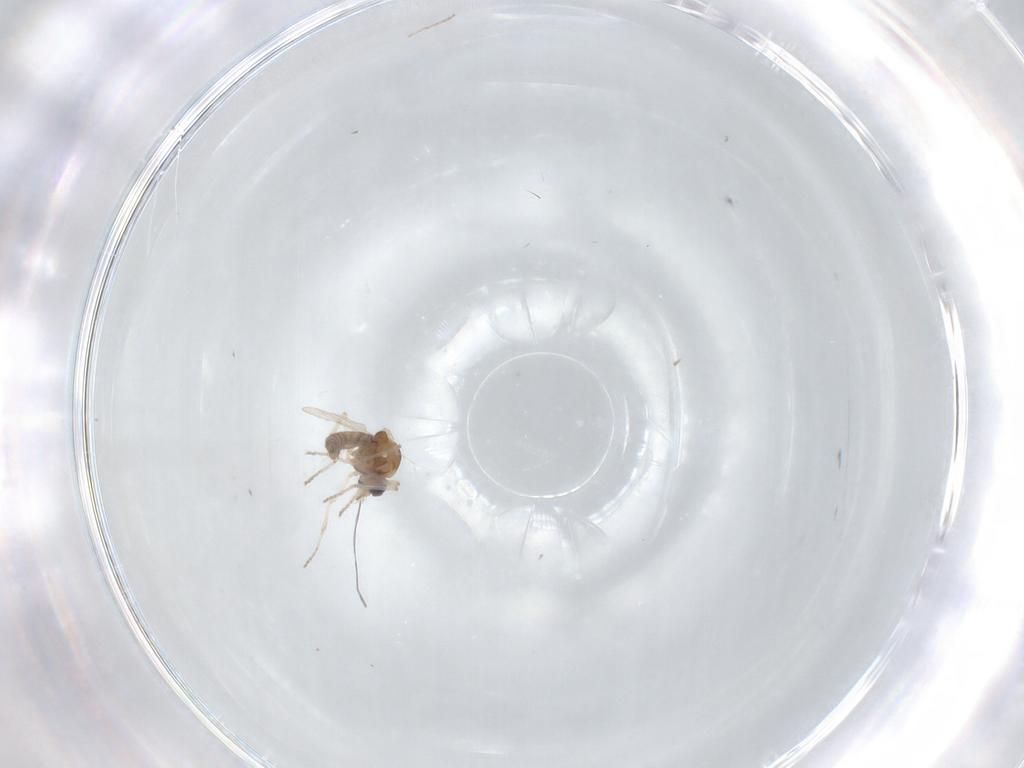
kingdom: Animalia
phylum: Arthropoda
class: Insecta
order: Diptera
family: Ceratopogonidae
